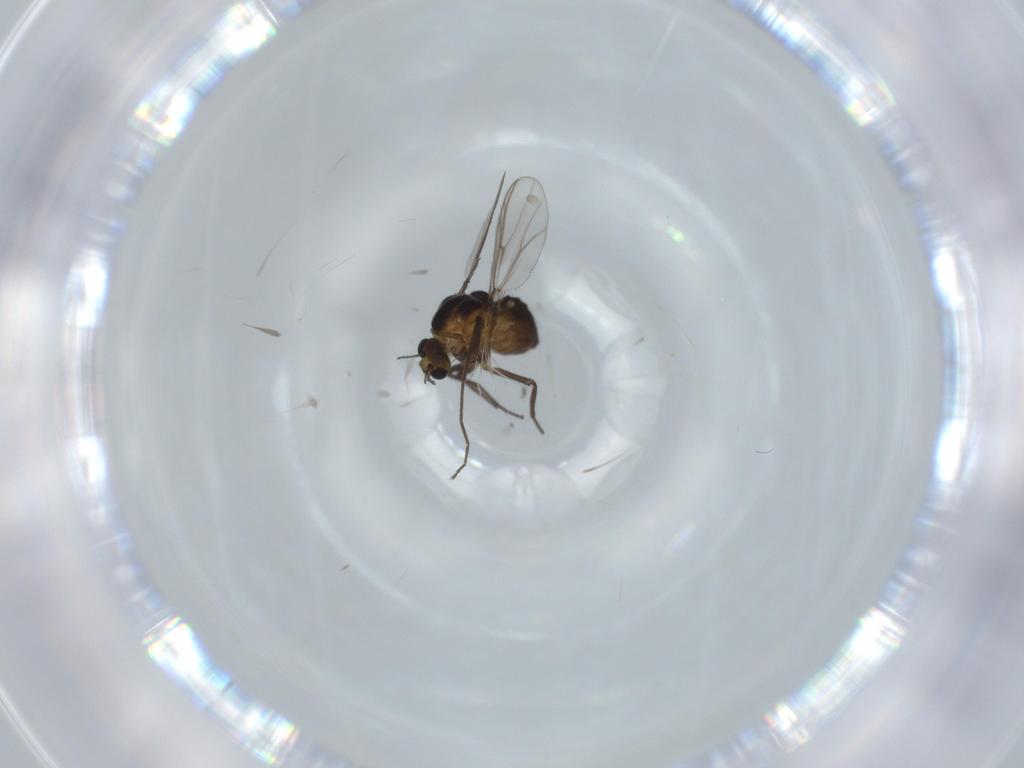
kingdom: Animalia
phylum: Arthropoda
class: Insecta
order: Diptera
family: Cecidomyiidae
